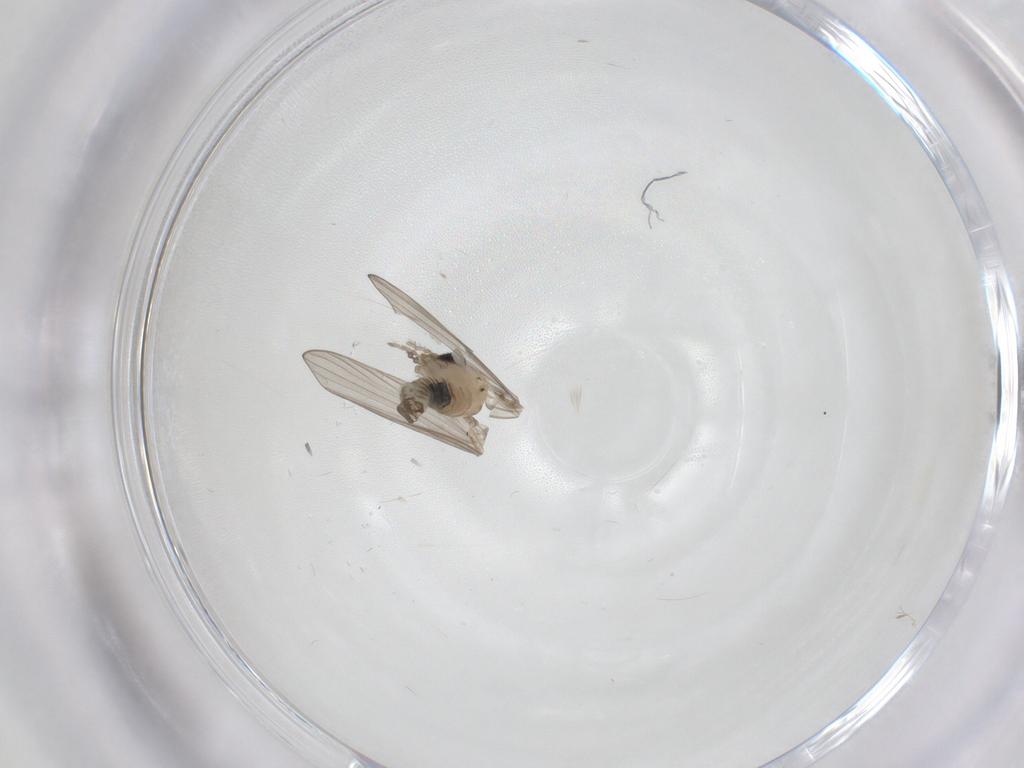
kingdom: Animalia
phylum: Arthropoda
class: Insecta
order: Diptera
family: Psychodidae
